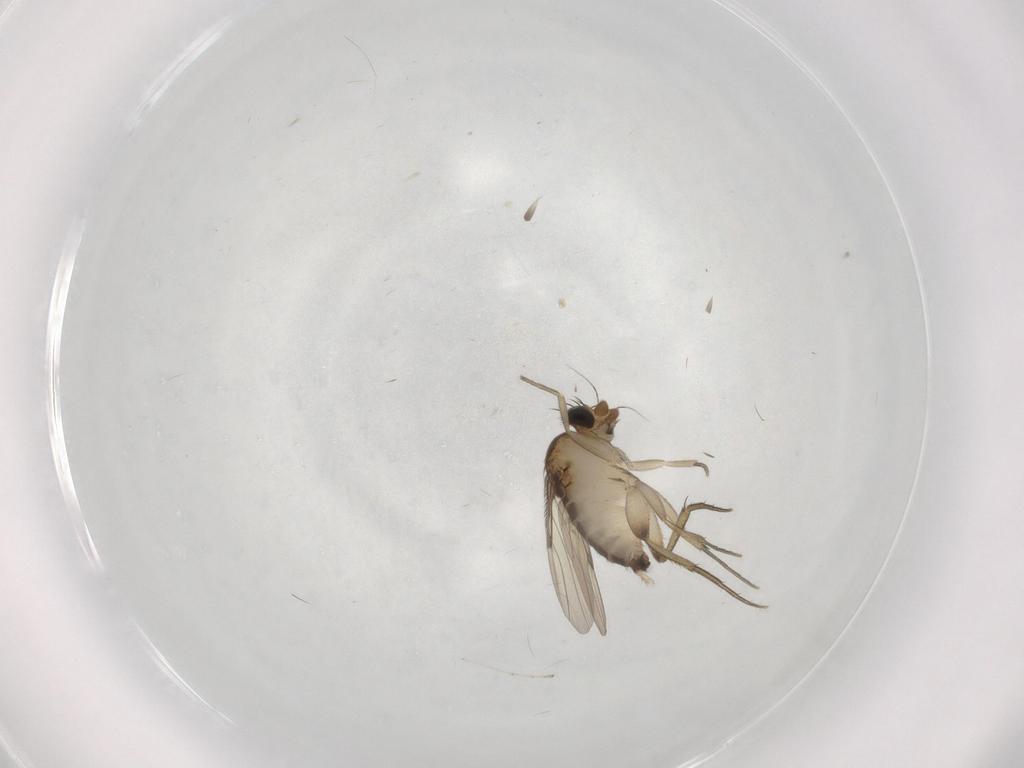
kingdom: Animalia
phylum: Arthropoda
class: Insecta
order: Diptera
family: Phoridae
